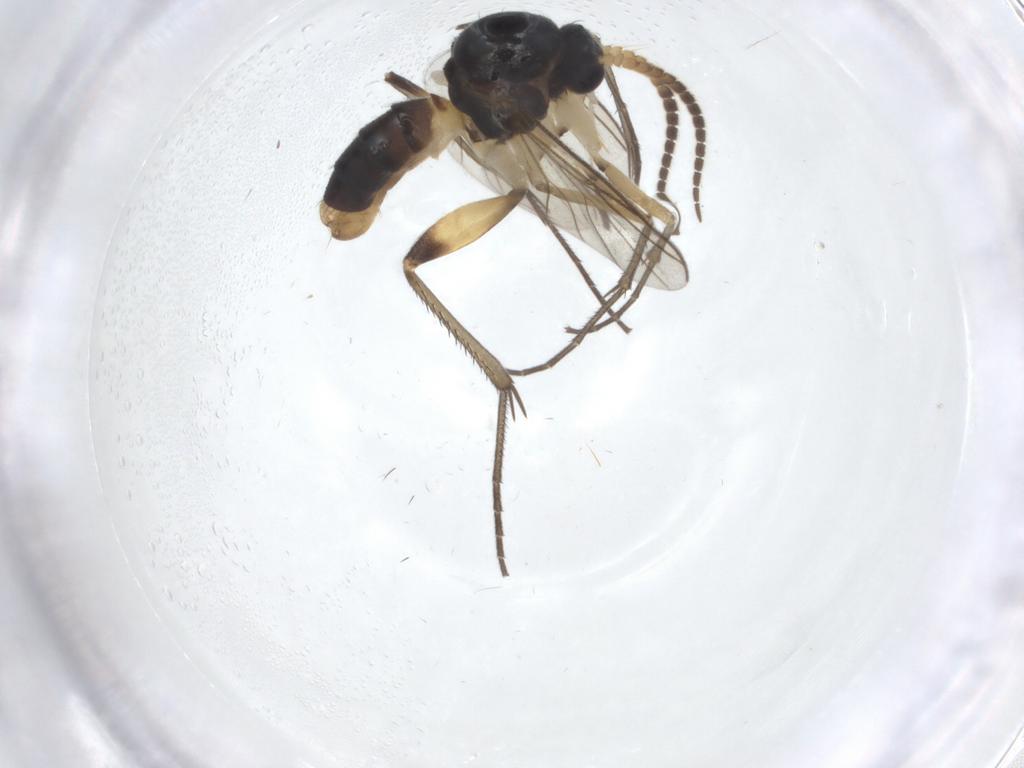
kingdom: Animalia
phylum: Arthropoda
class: Insecta
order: Diptera
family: Mycetophilidae
